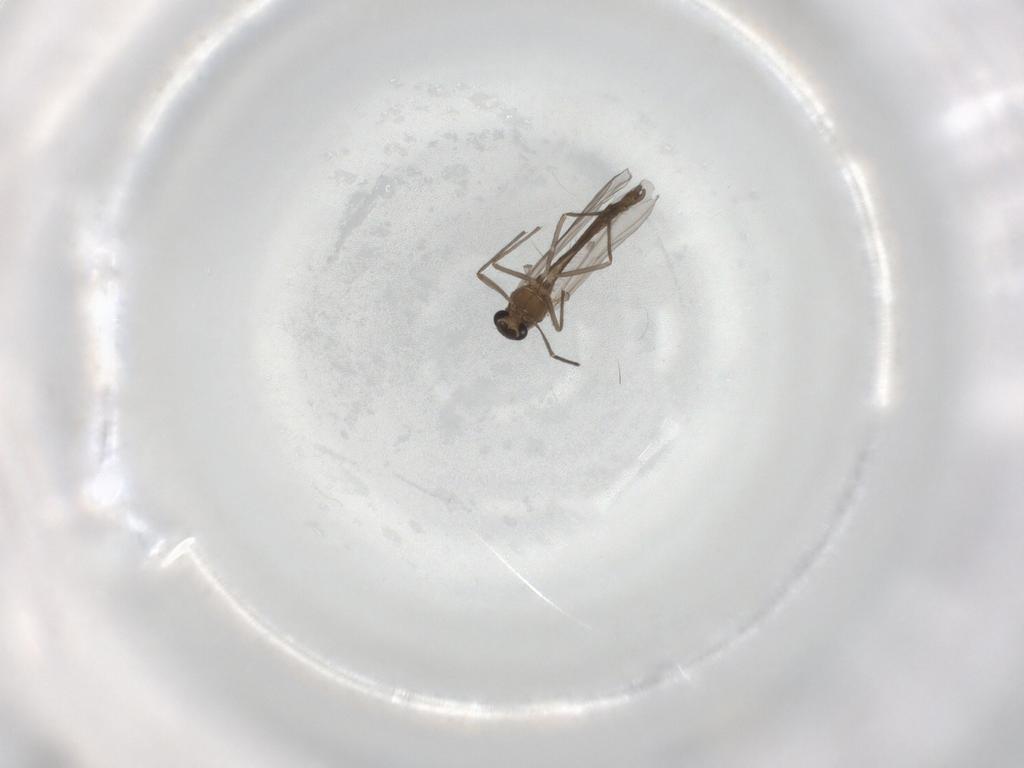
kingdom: Animalia
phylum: Arthropoda
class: Insecta
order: Diptera
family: Chironomidae
